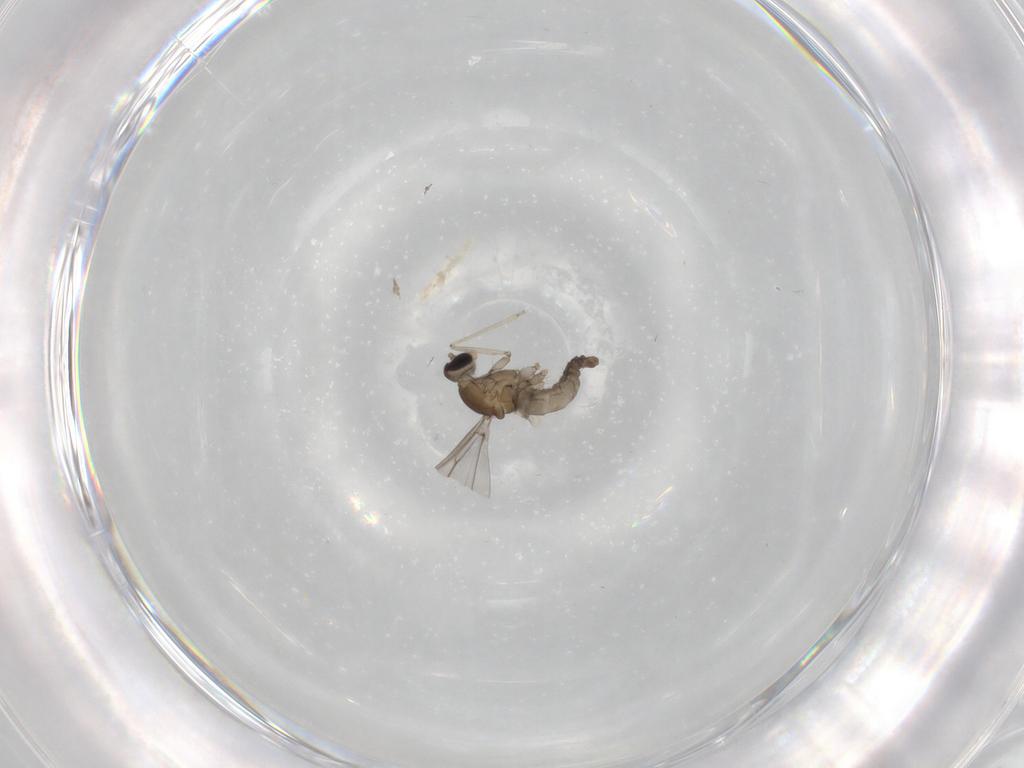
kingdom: Animalia
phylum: Arthropoda
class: Insecta
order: Diptera
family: Cecidomyiidae
